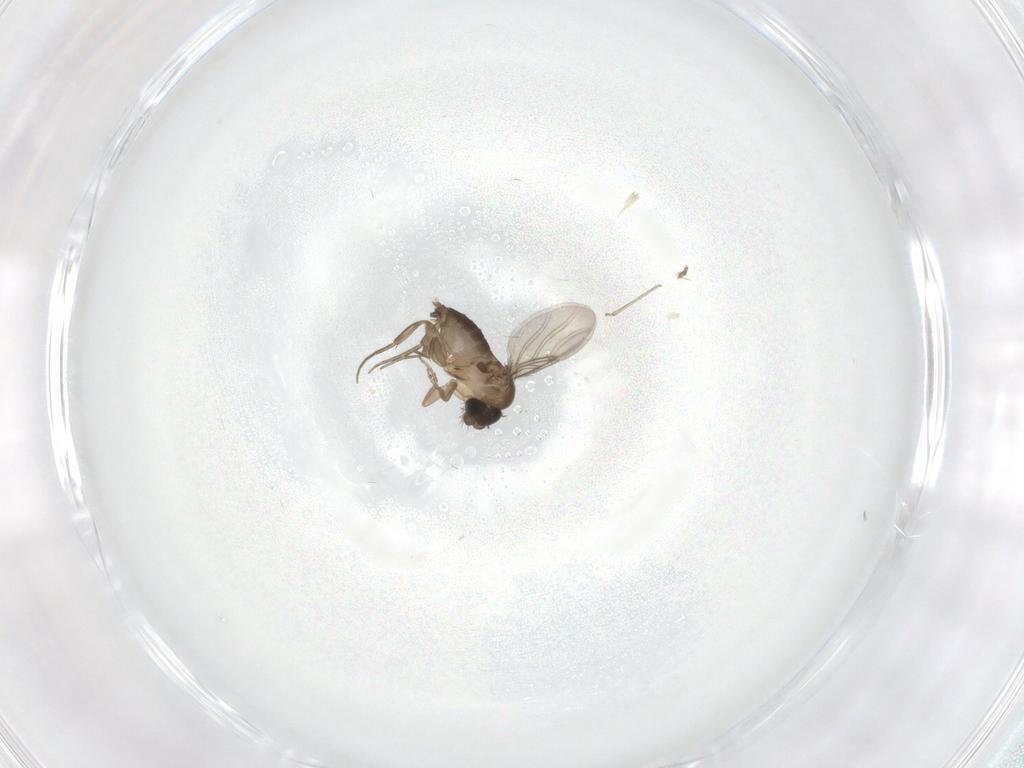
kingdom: Animalia
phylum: Arthropoda
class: Insecta
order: Diptera
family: Phoridae
